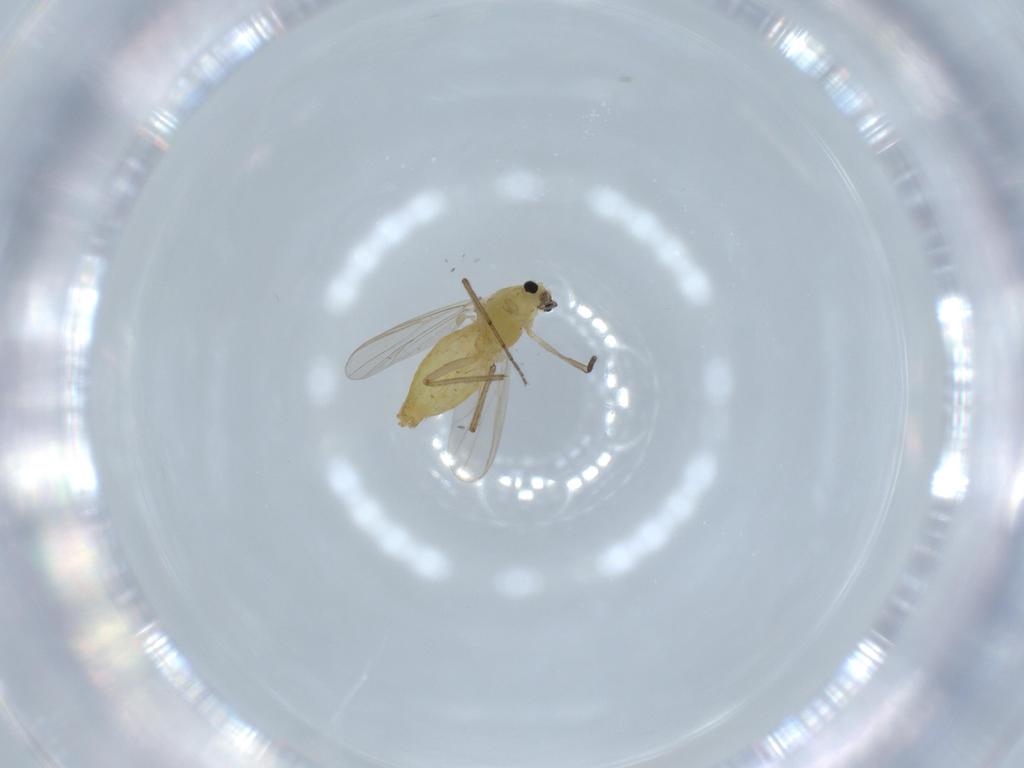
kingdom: Animalia
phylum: Arthropoda
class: Insecta
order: Diptera
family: Chironomidae
